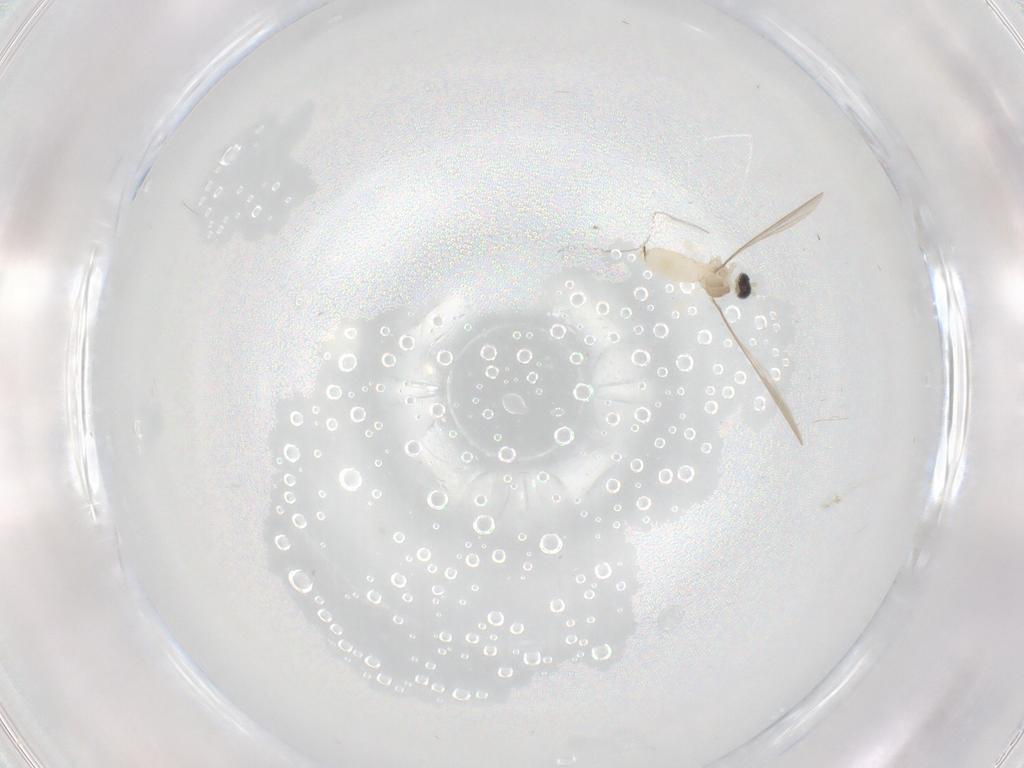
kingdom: Animalia
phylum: Arthropoda
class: Insecta
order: Diptera
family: Cecidomyiidae
